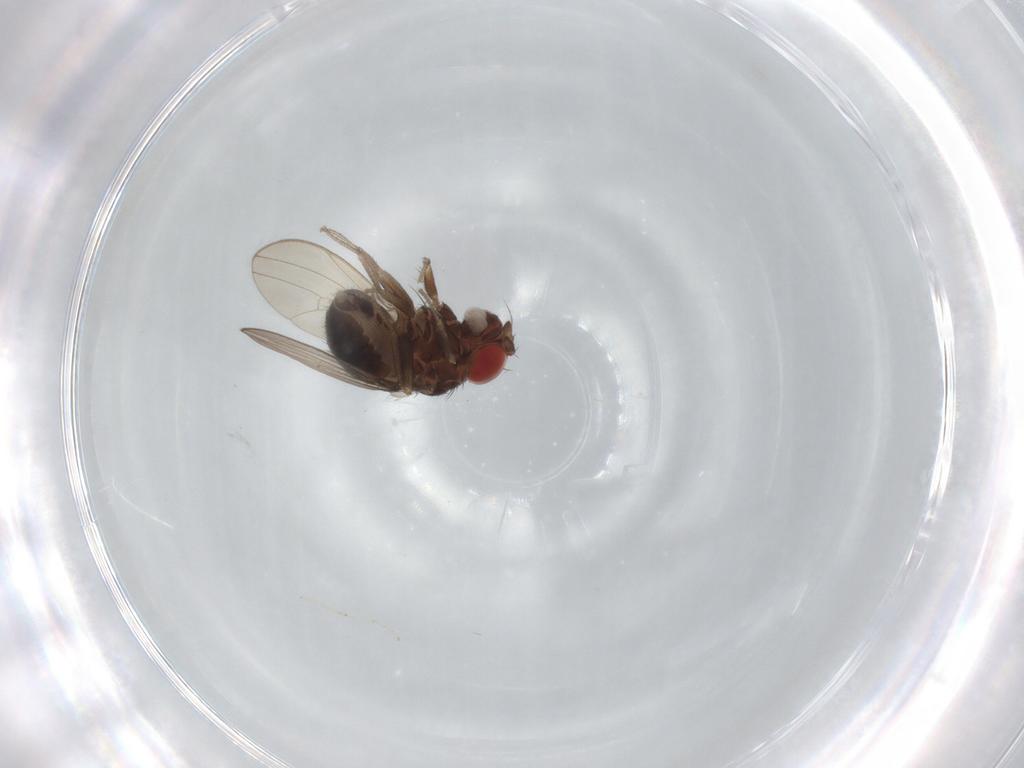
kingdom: Animalia
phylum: Arthropoda
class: Insecta
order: Diptera
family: Drosophilidae
